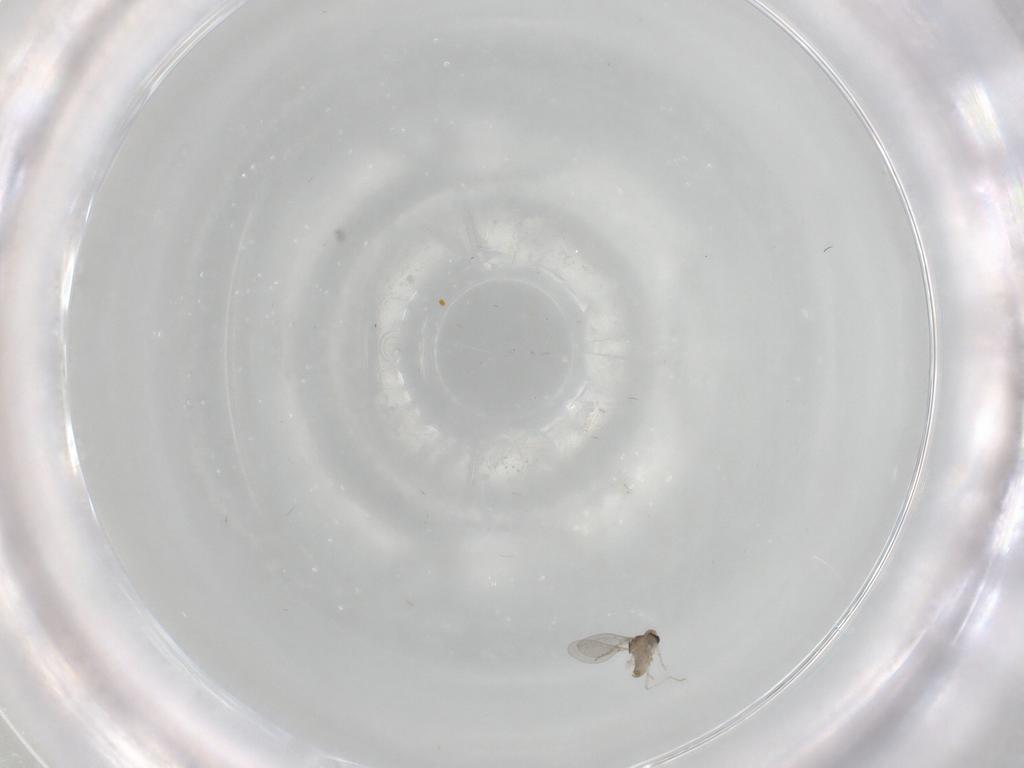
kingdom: Animalia
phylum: Arthropoda
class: Insecta
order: Diptera
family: Cecidomyiidae
